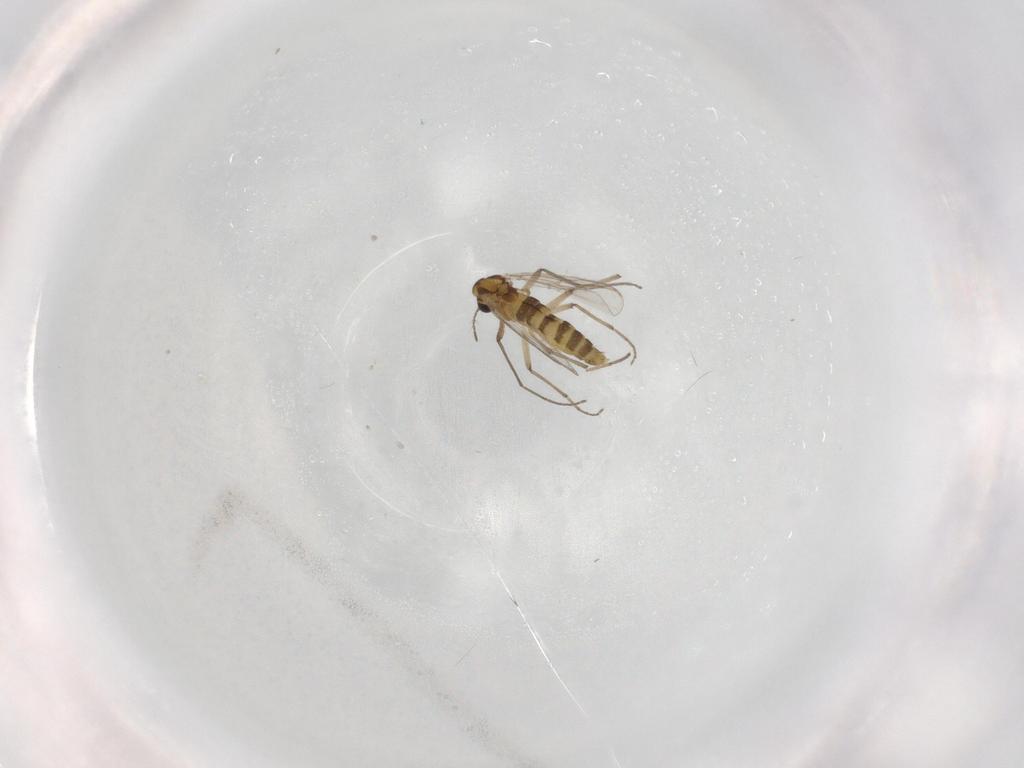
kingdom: Animalia
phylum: Arthropoda
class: Insecta
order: Diptera
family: Chironomidae
